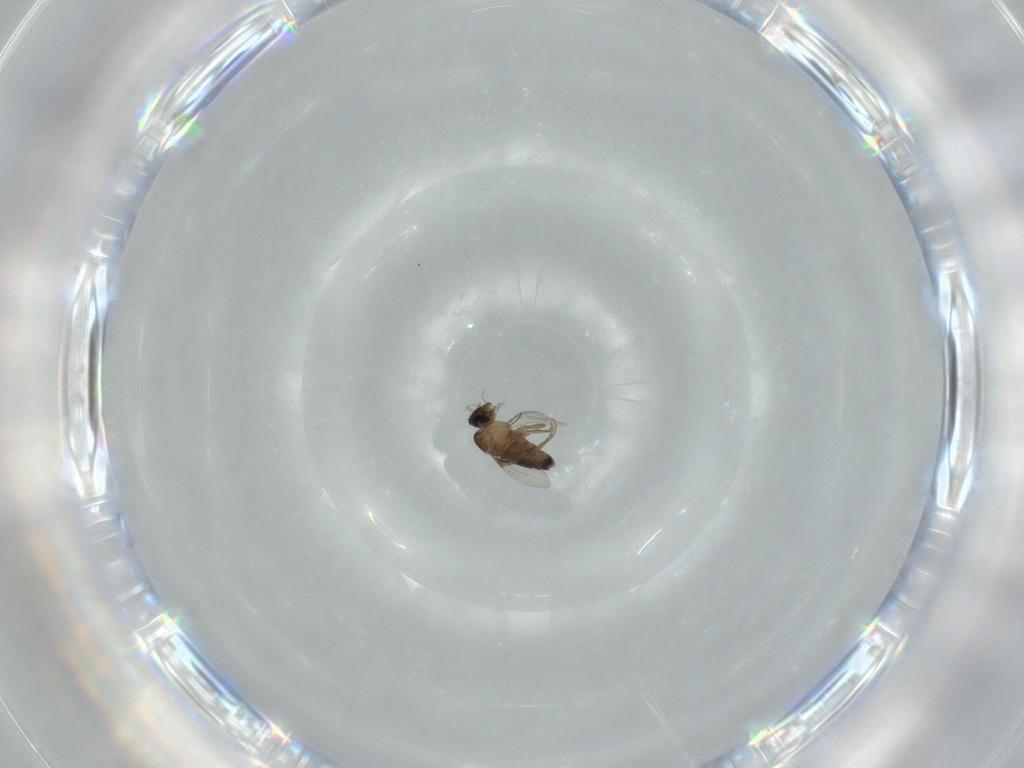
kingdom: Animalia
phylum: Arthropoda
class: Insecta
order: Diptera
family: Phoridae
